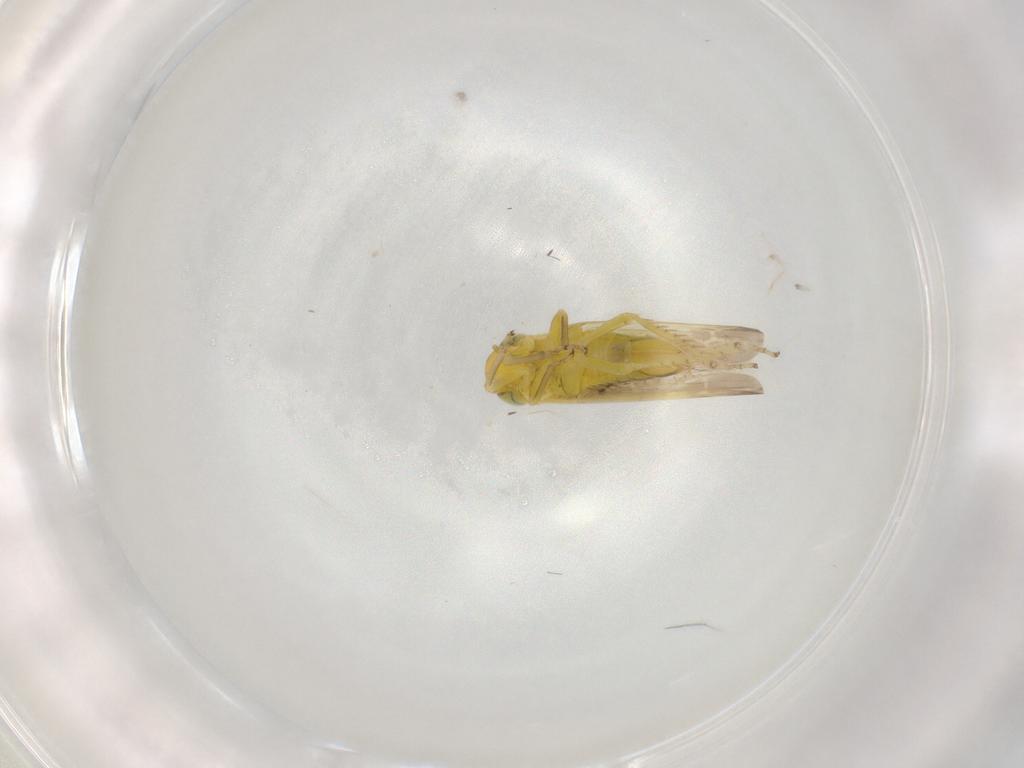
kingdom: Animalia
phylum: Arthropoda
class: Insecta
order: Hemiptera
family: Cicadellidae
